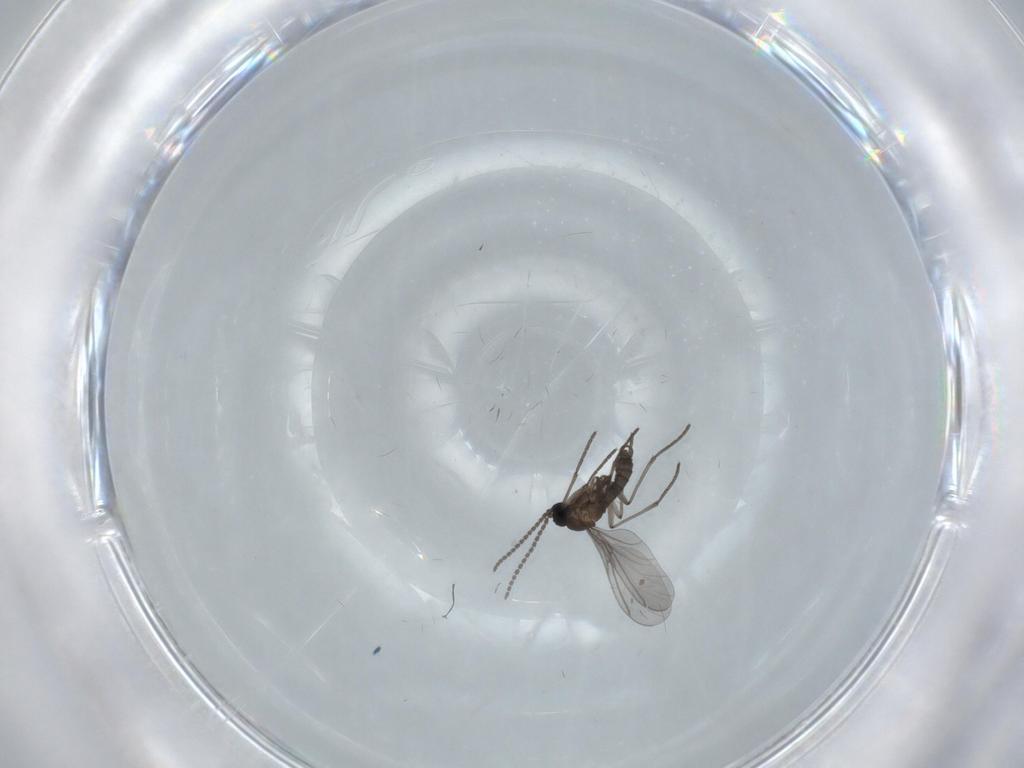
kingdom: Animalia
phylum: Arthropoda
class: Insecta
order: Diptera
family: Sciaridae
